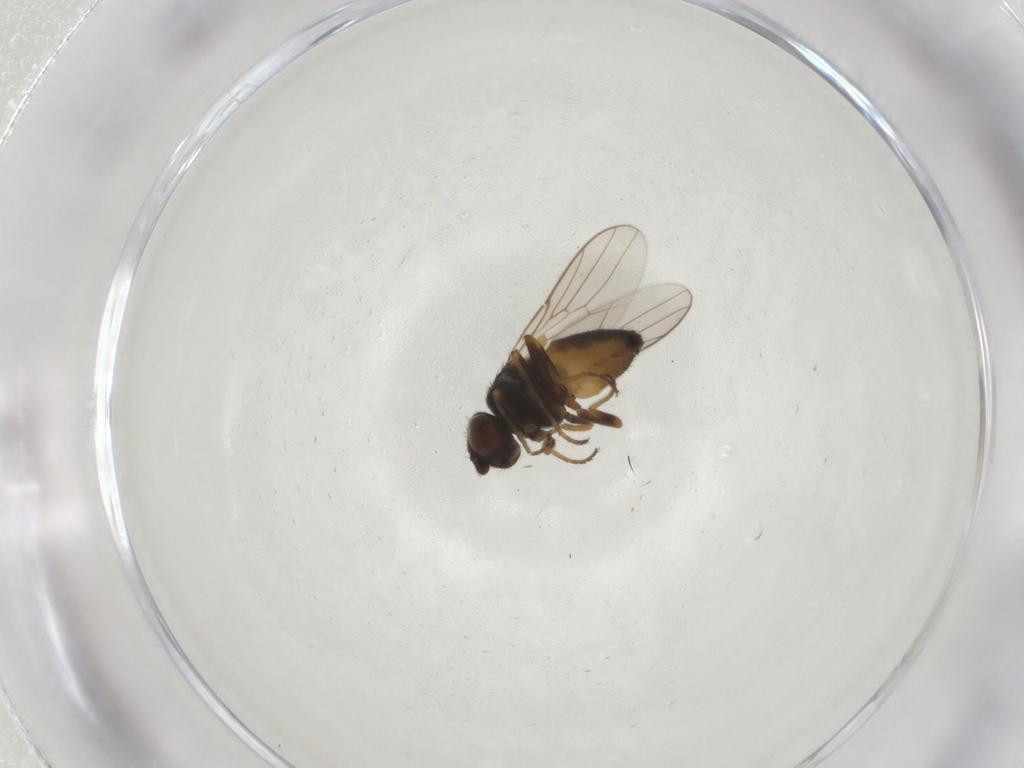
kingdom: Animalia
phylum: Arthropoda
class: Insecta
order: Diptera
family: Chloropidae
